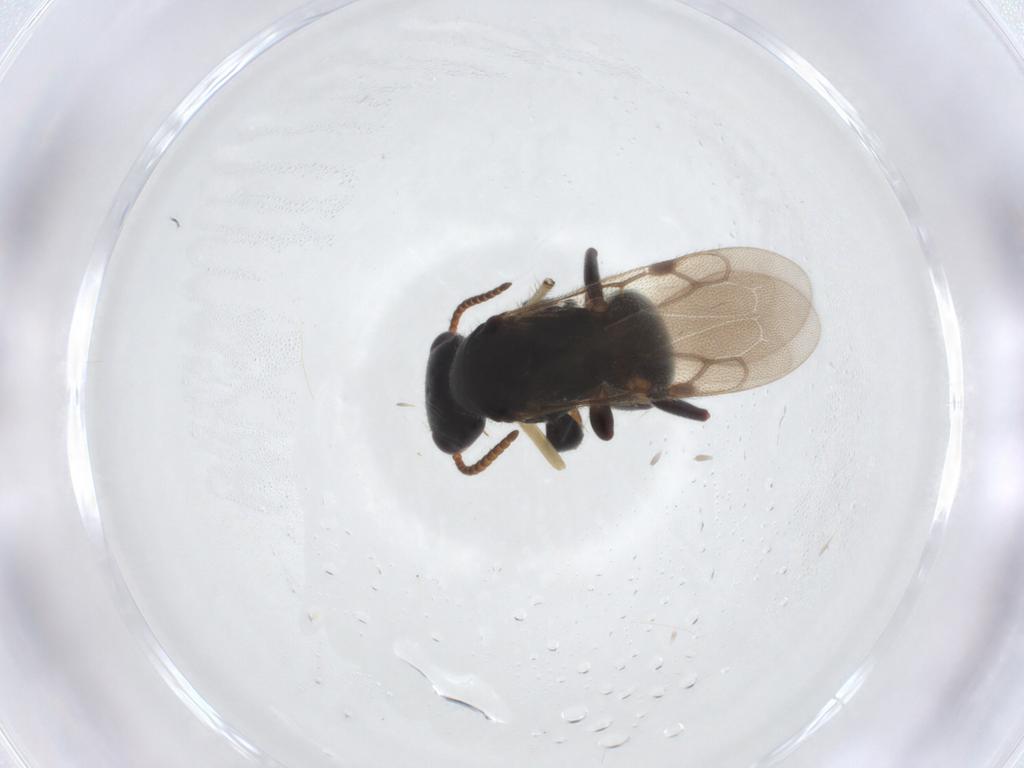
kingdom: Animalia
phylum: Arthropoda
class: Insecta
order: Hymenoptera
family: Bethylidae
